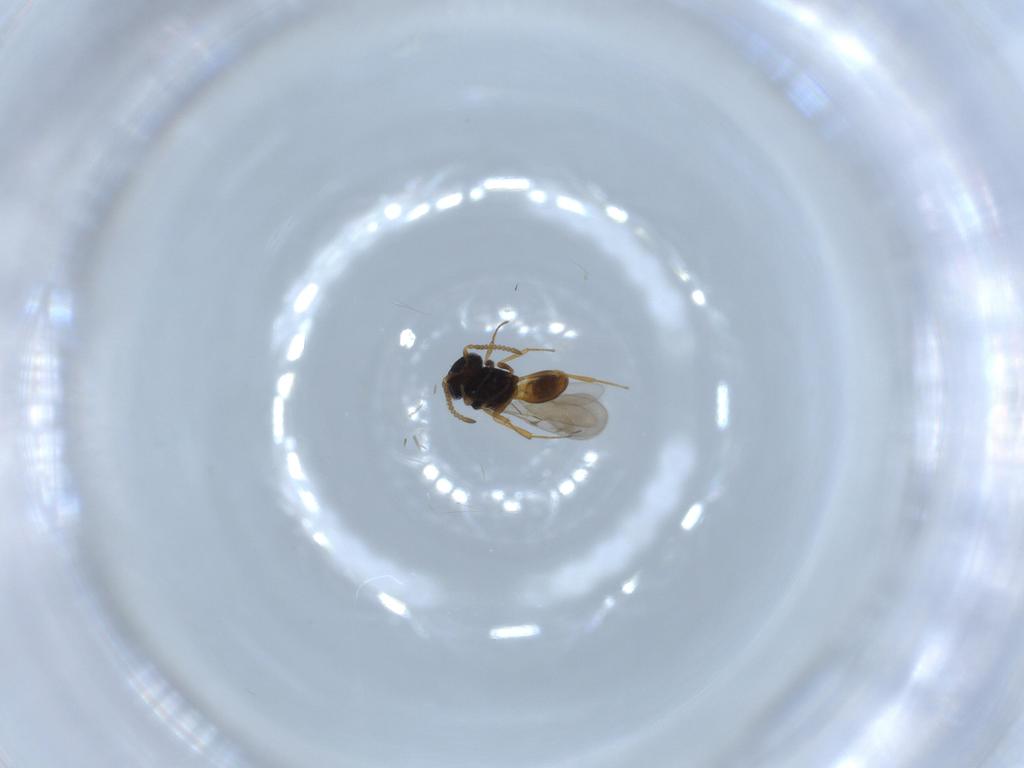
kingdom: Animalia
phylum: Arthropoda
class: Insecta
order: Hymenoptera
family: Scelionidae
